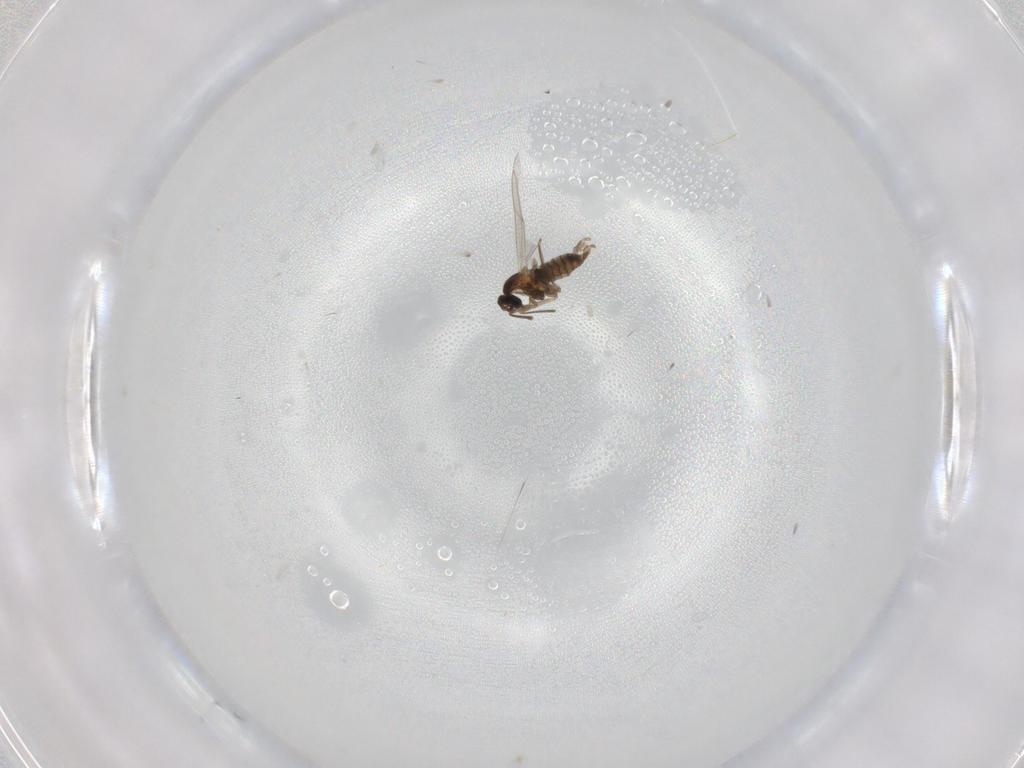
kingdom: Animalia
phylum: Arthropoda
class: Insecta
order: Diptera
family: Cecidomyiidae
